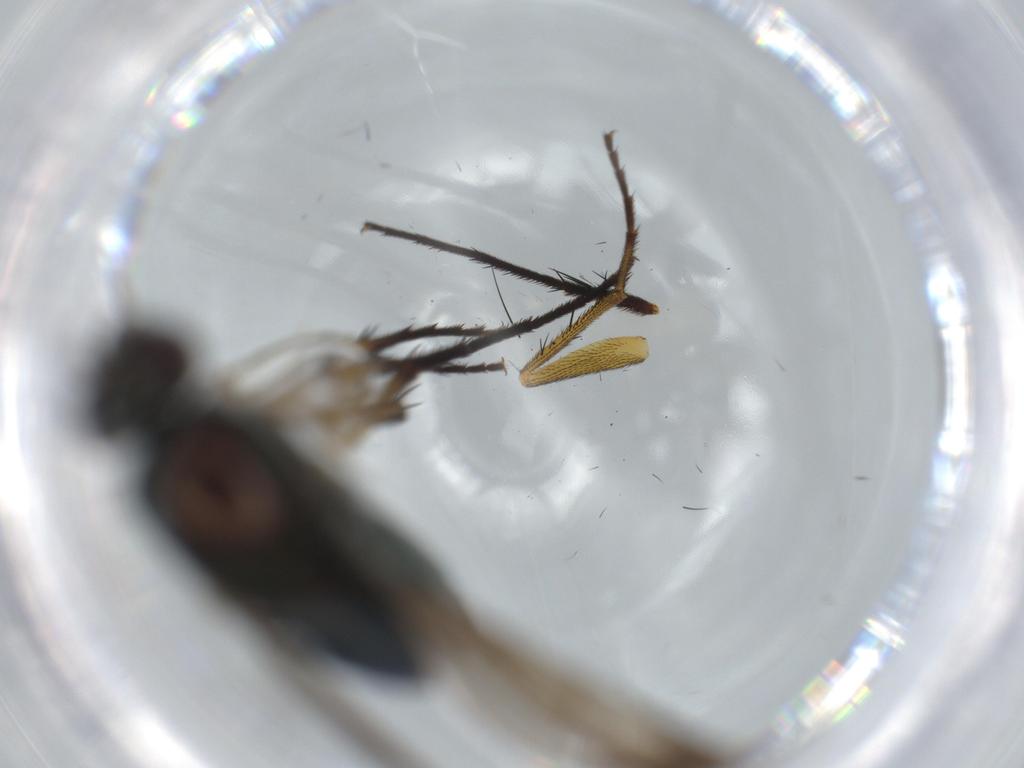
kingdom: Animalia
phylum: Arthropoda
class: Insecta
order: Diptera
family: Dolichopodidae
